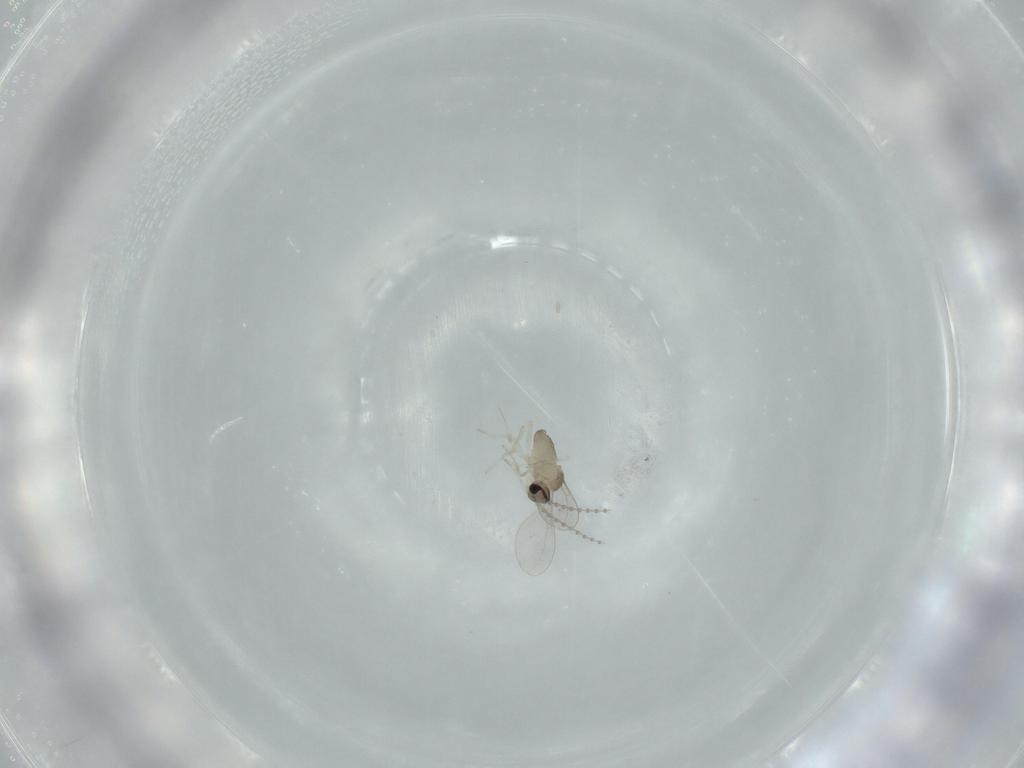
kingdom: Animalia
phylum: Arthropoda
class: Insecta
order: Diptera
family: Cecidomyiidae
